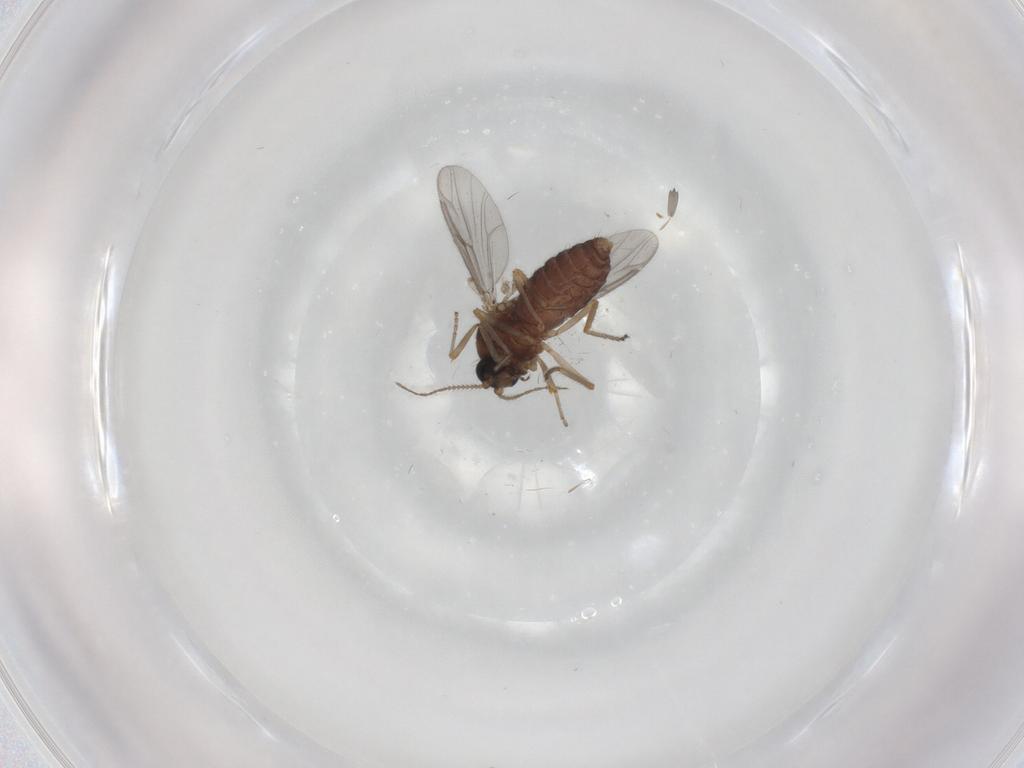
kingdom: Animalia
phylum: Arthropoda
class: Insecta
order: Diptera
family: Ceratopogonidae
